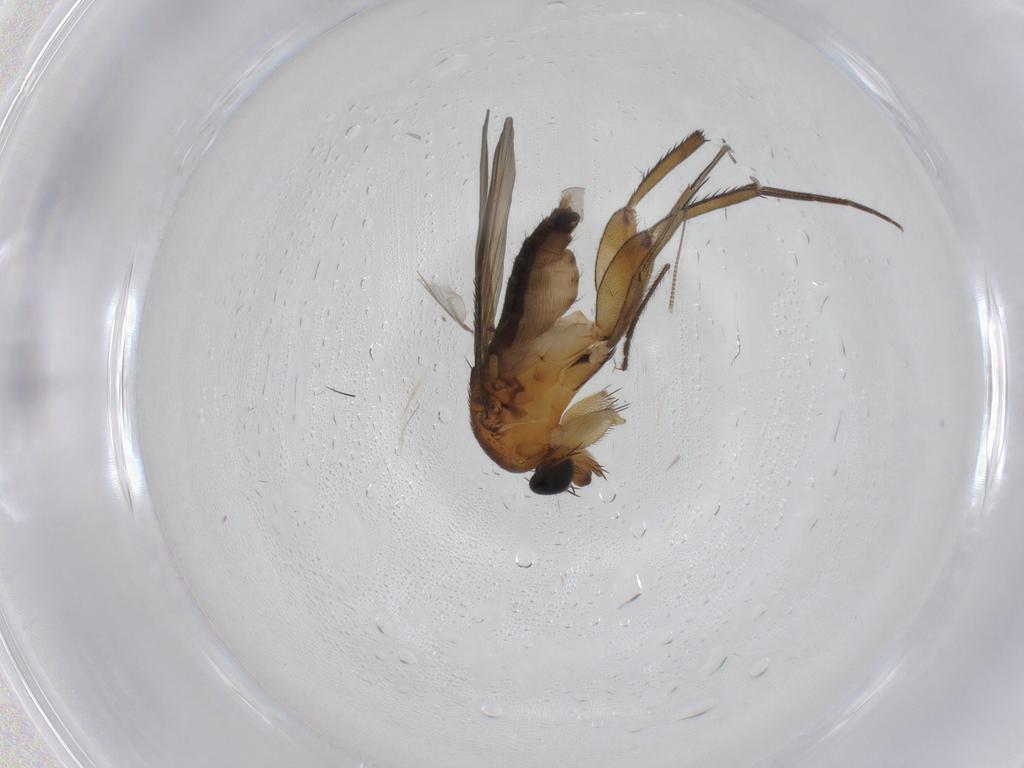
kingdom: Animalia
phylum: Arthropoda
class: Insecta
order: Diptera
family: Phoridae
